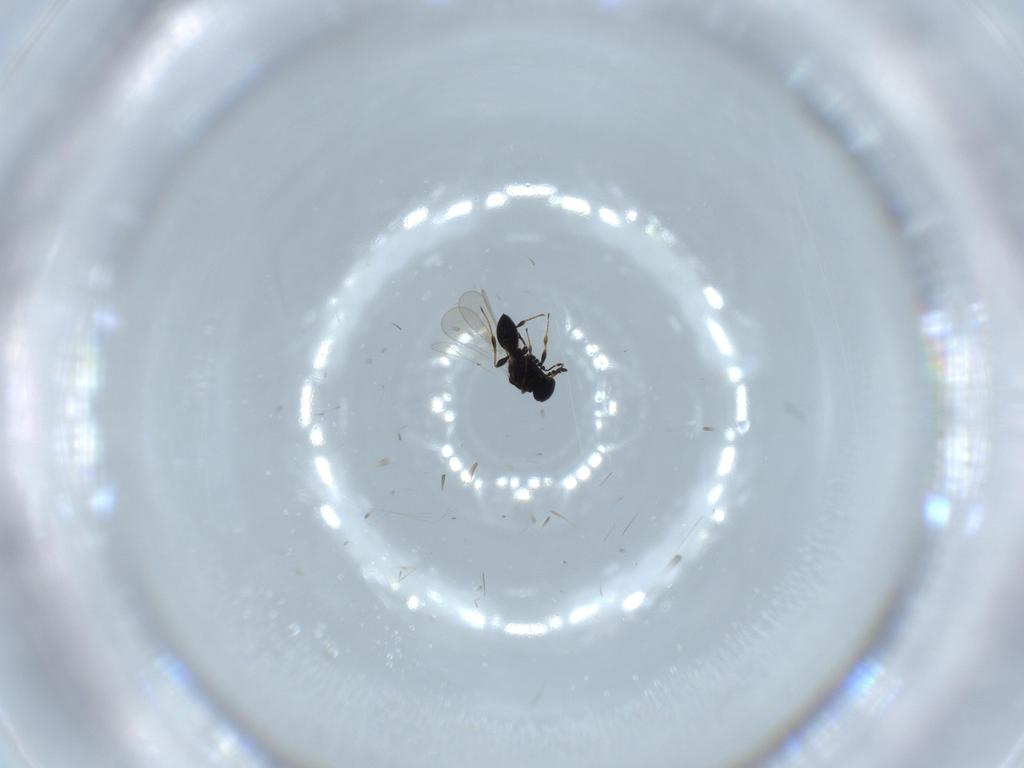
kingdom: Animalia
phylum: Arthropoda
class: Insecta
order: Hymenoptera
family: Platygastridae
